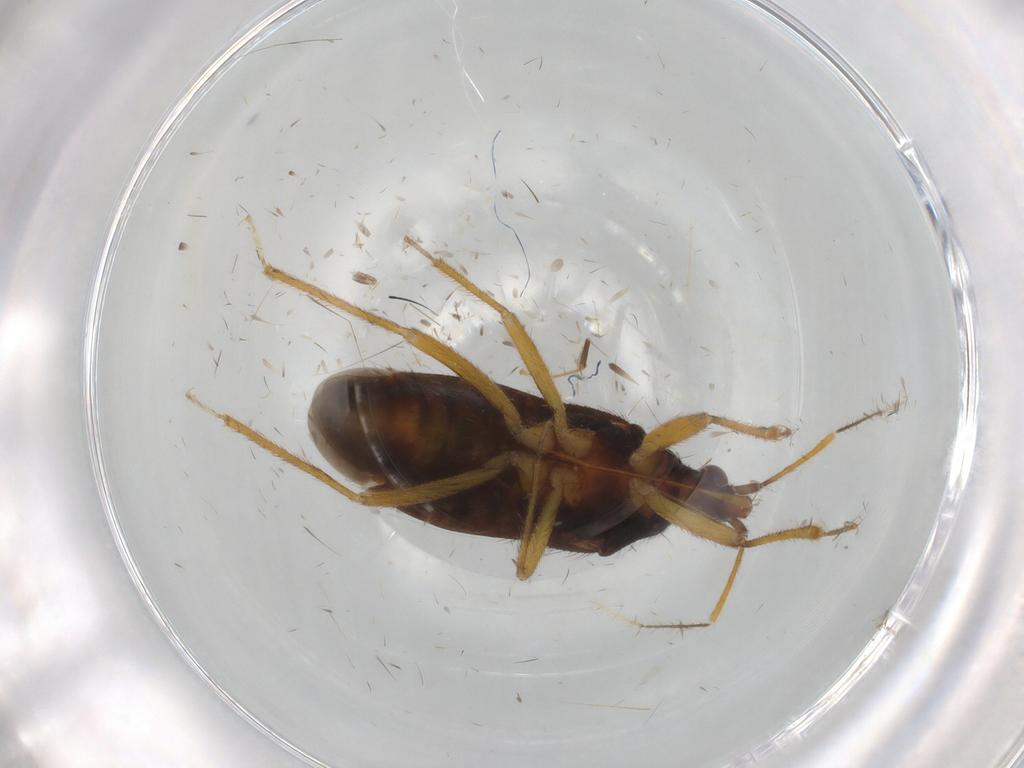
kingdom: Animalia
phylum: Arthropoda
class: Insecta
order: Hemiptera
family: Anthocoridae
